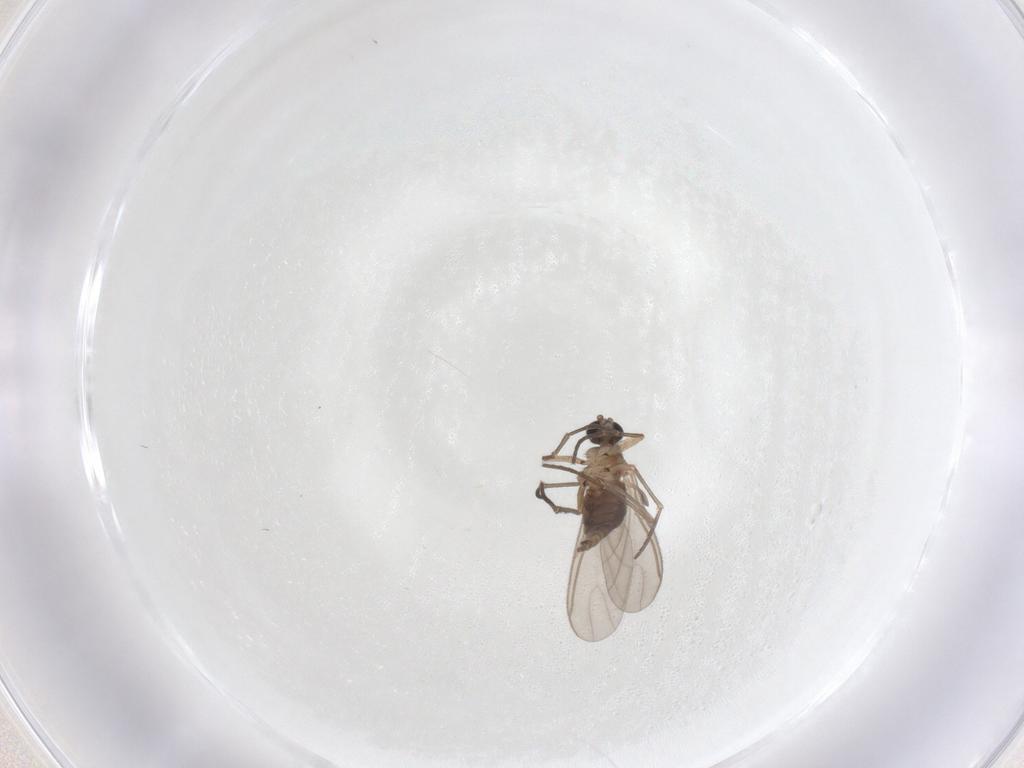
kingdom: Animalia
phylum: Arthropoda
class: Insecta
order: Diptera
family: Sciaridae
